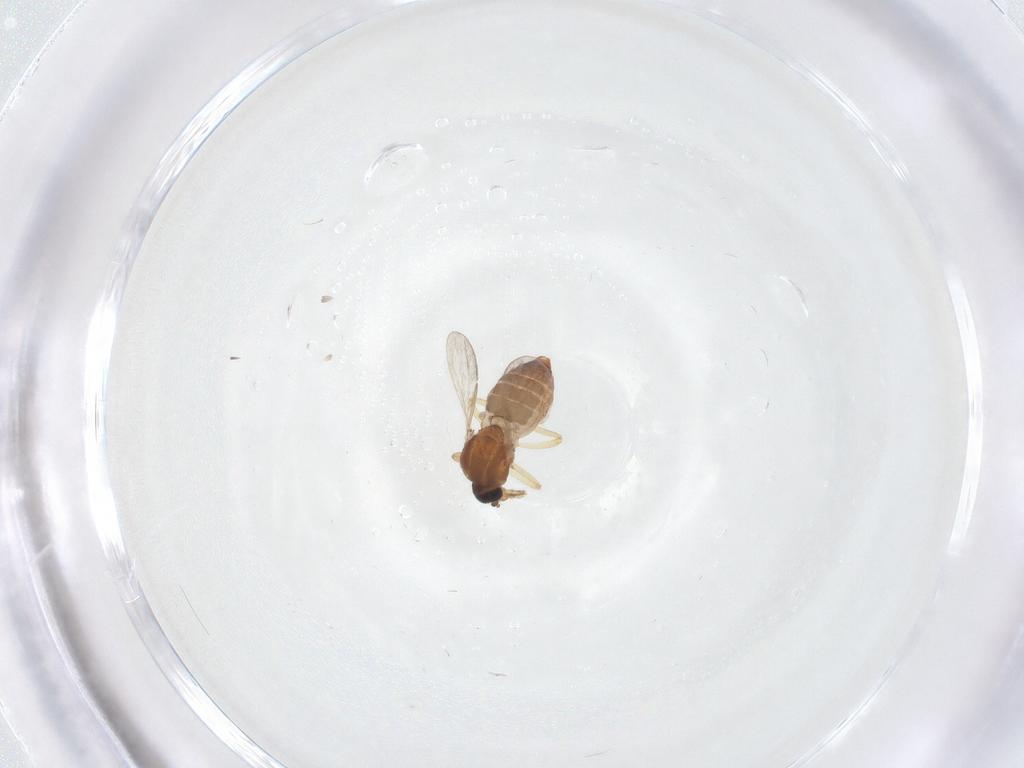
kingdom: Animalia
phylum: Arthropoda
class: Insecta
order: Diptera
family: Ceratopogonidae
